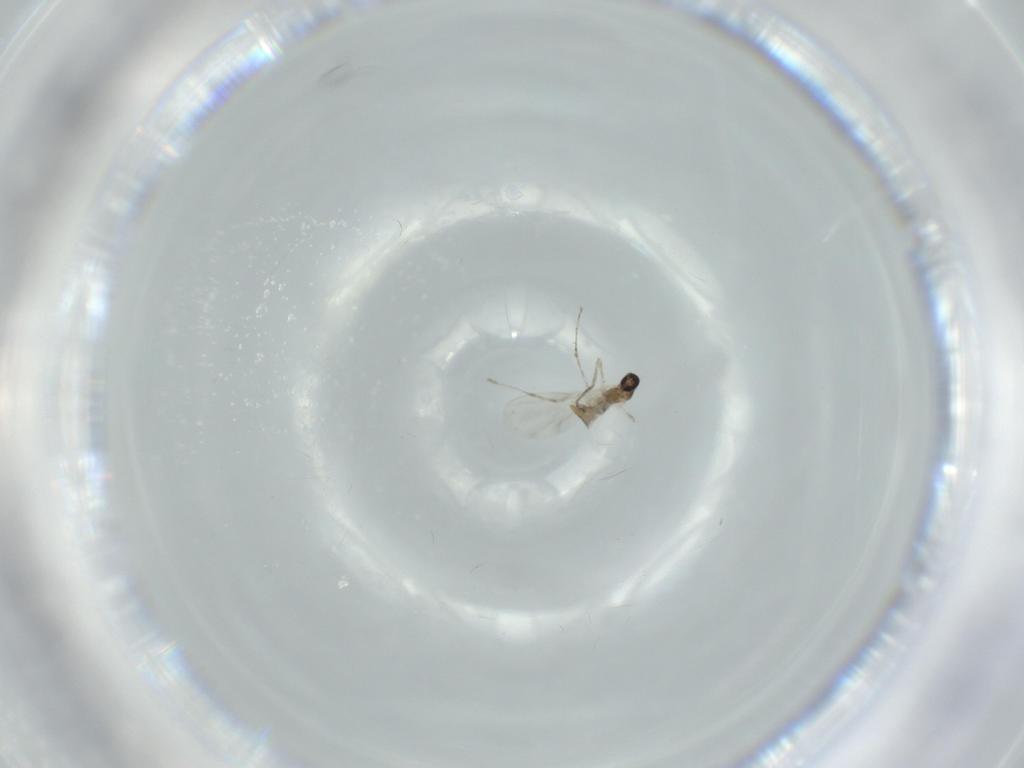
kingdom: Animalia
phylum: Arthropoda
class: Insecta
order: Diptera
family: Cecidomyiidae
